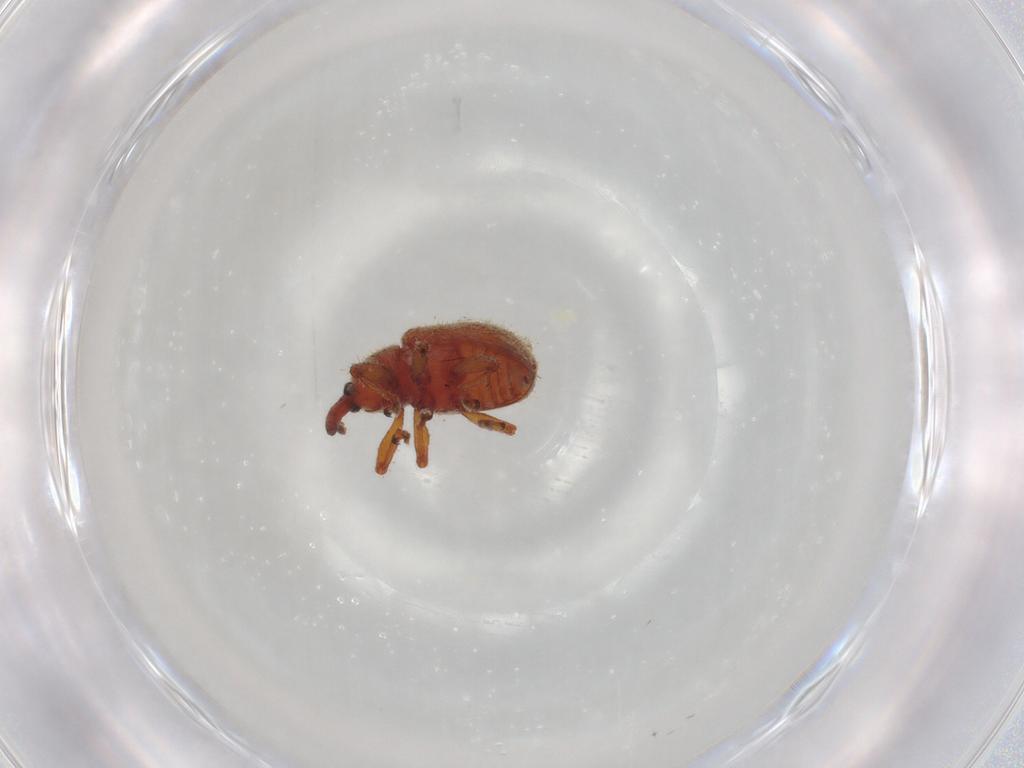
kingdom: Animalia
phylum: Arthropoda
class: Insecta
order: Coleoptera
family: Curculionidae
